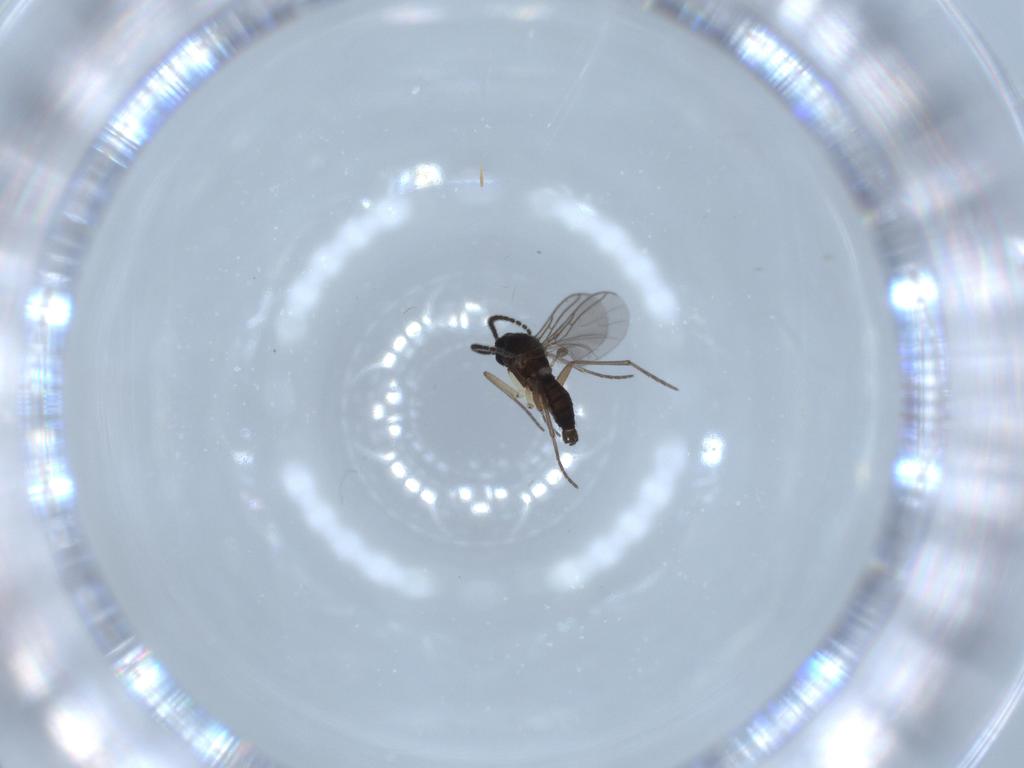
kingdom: Animalia
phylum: Arthropoda
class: Insecta
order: Diptera
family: Sciaridae
